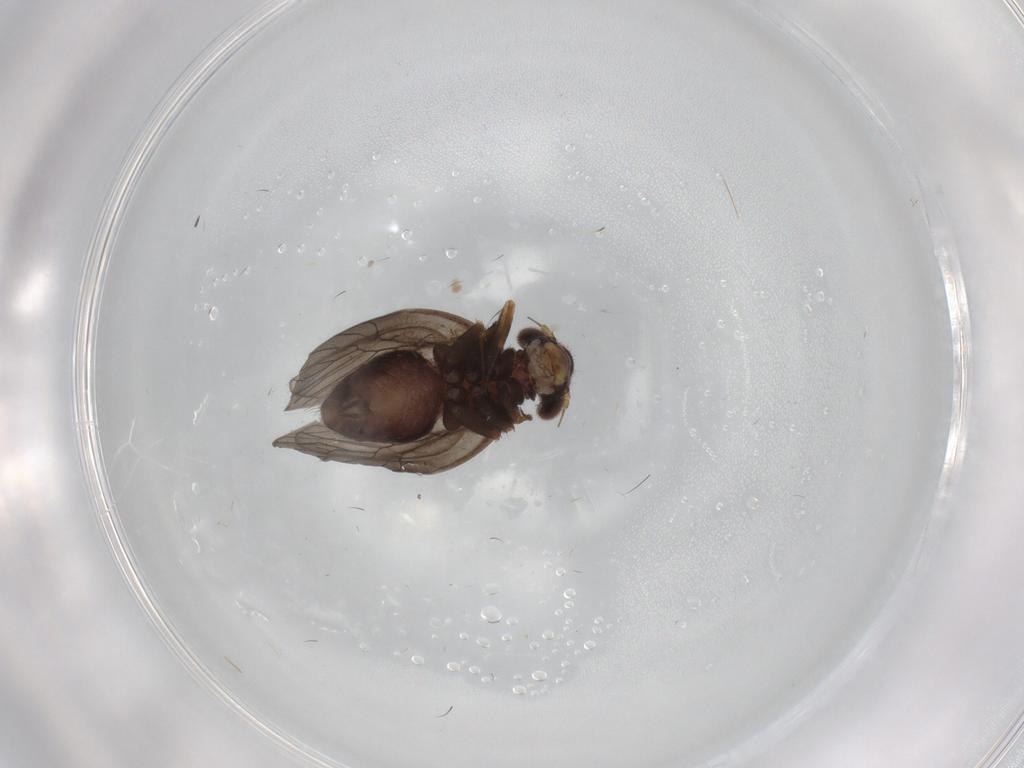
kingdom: Animalia
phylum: Arthropoda
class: Insecta
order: Psocodea
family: Lepidopsocidae
